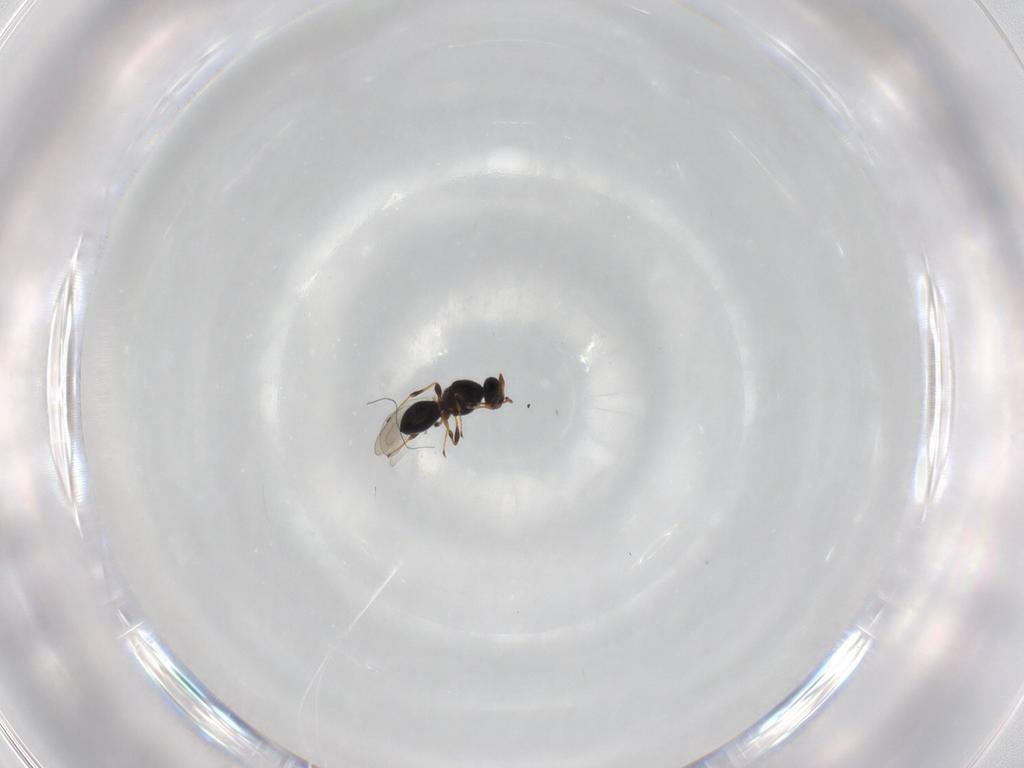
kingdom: Animalia
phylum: Arthropoda
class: Insecta
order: Hymenoptera
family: Platygastridae
